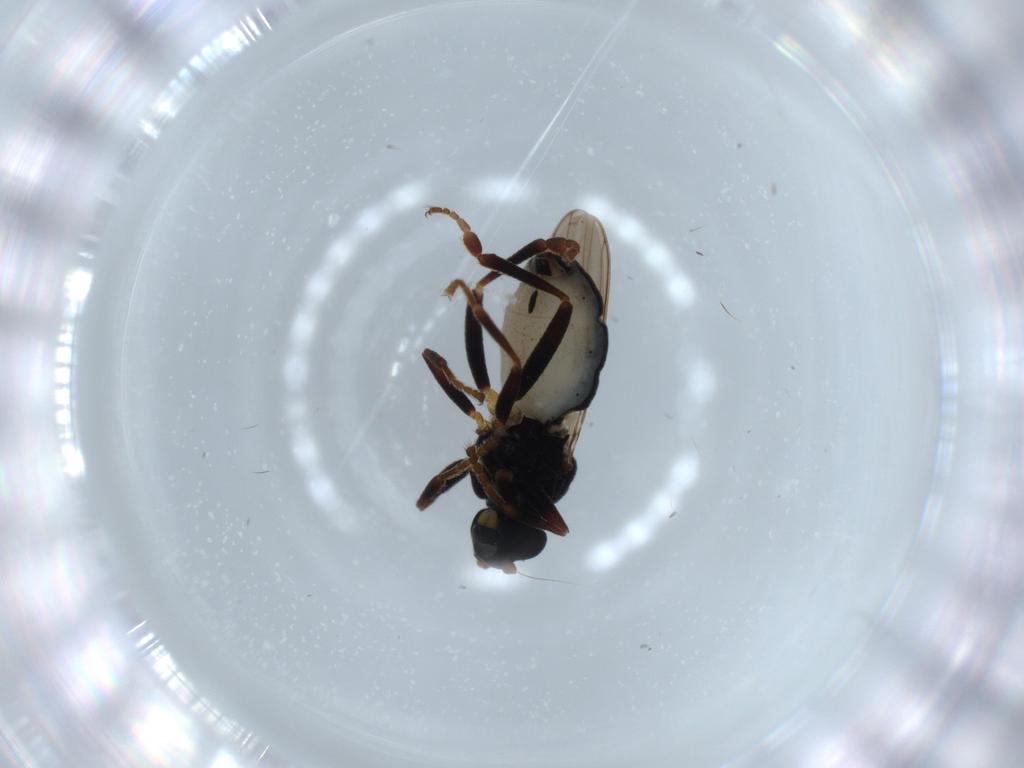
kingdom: Animalia
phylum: Arthropoda
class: Insecta
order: Diptera
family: Sphaeroceridae
